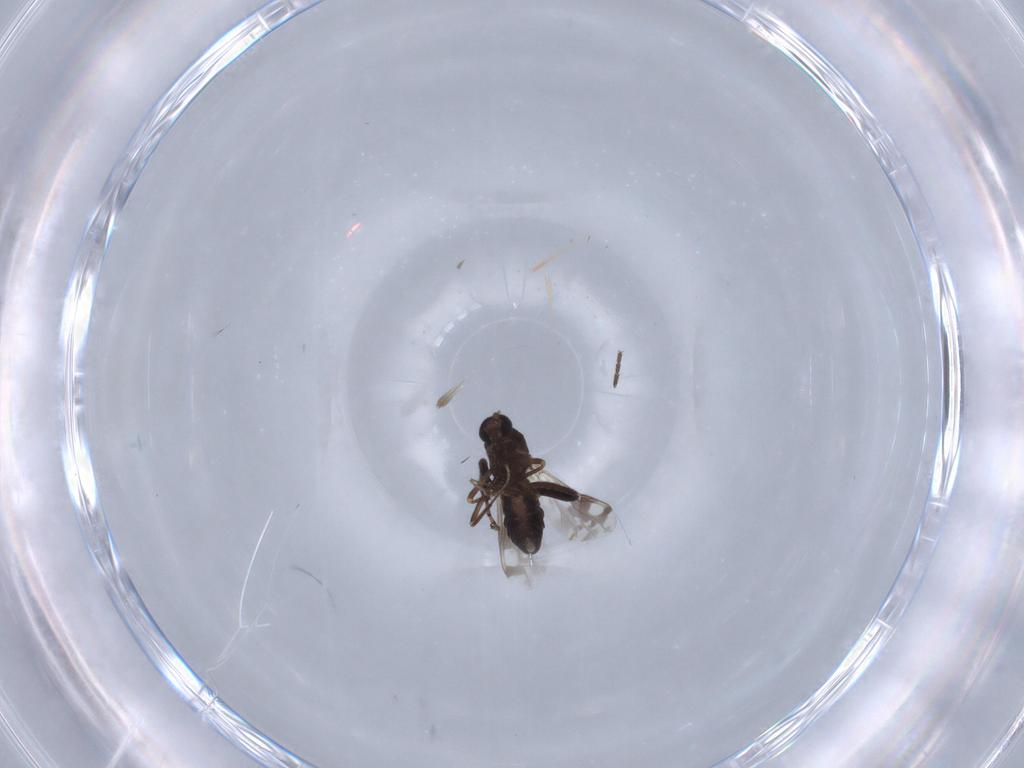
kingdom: Animalia
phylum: Arthropoda
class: Insecta
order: Diptera
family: Ceratopogonidae
